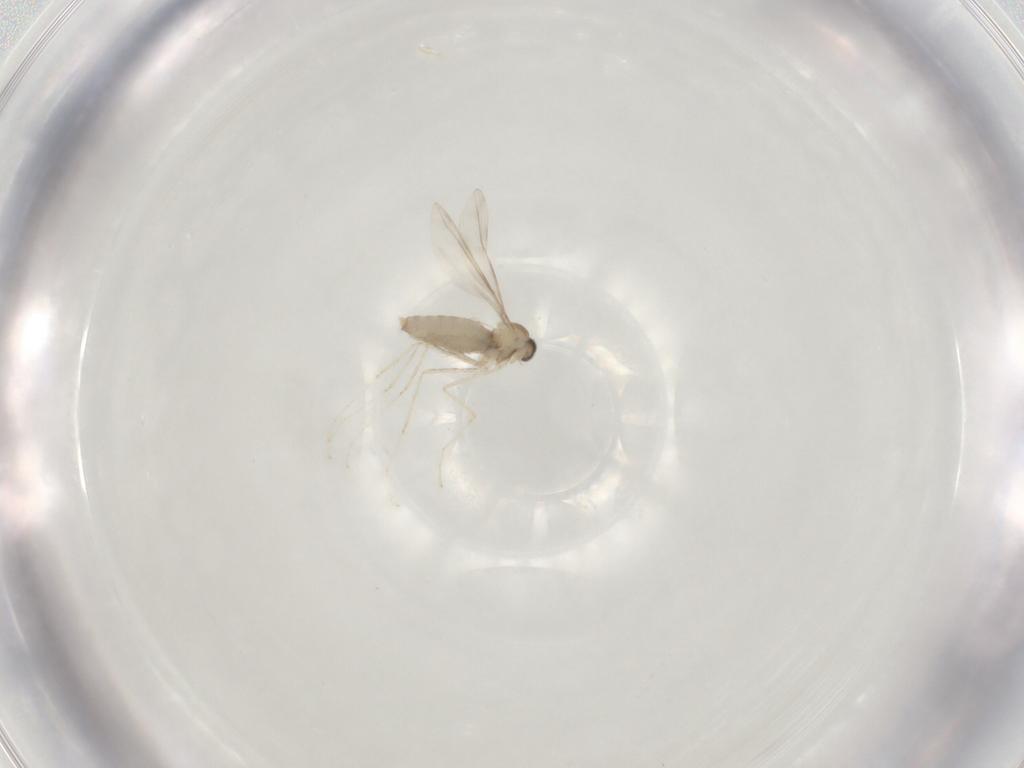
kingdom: Animalia
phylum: Arthropoda
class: Insecta
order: Diptera
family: Cecidomyiidae
